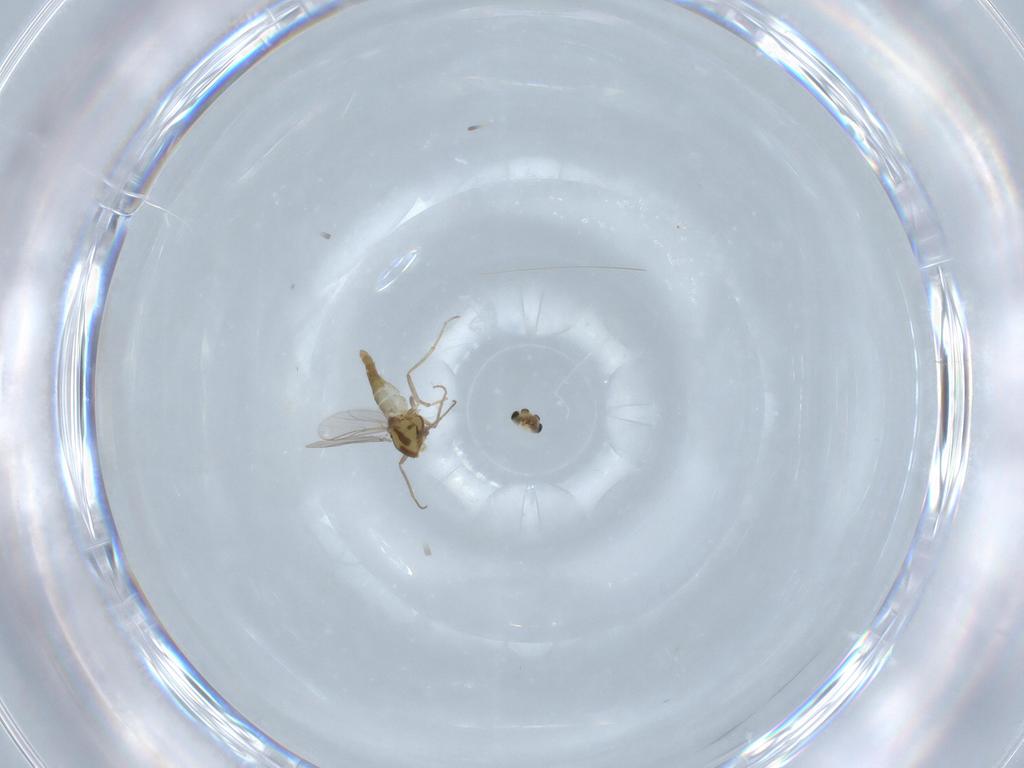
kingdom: Animalia
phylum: Arthropoda
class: Insecta
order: Diptera
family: Chironomidae
